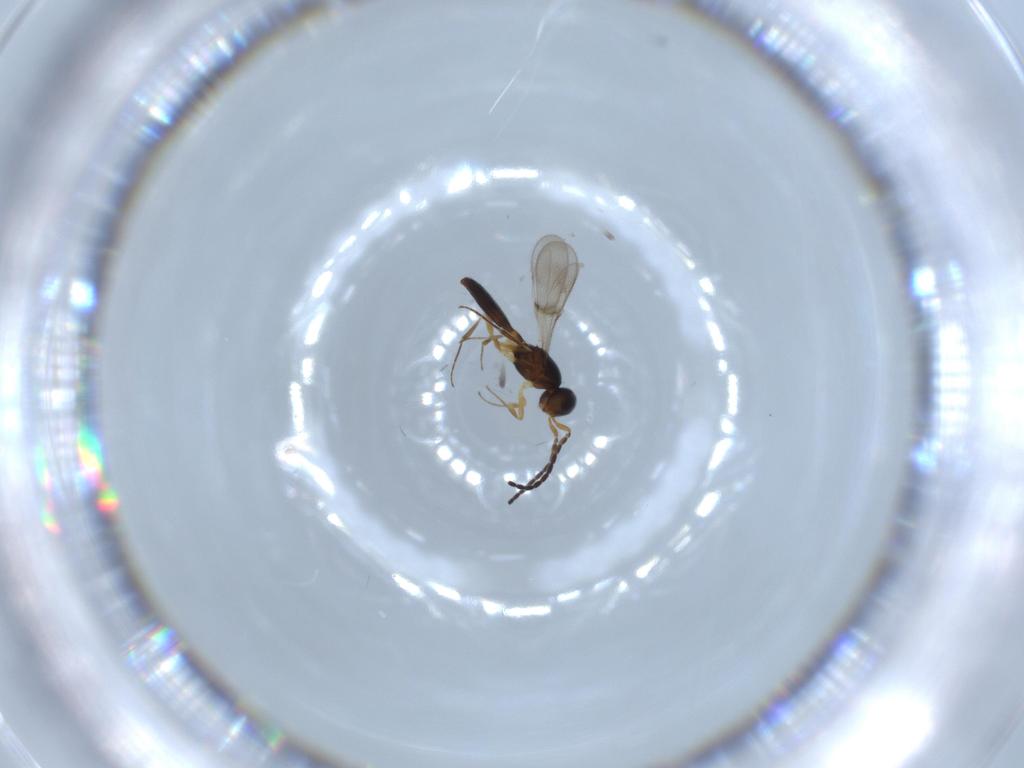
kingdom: Animalia
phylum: Arthropoda
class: Insecta
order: Hymenoptera
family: Scelionidae
